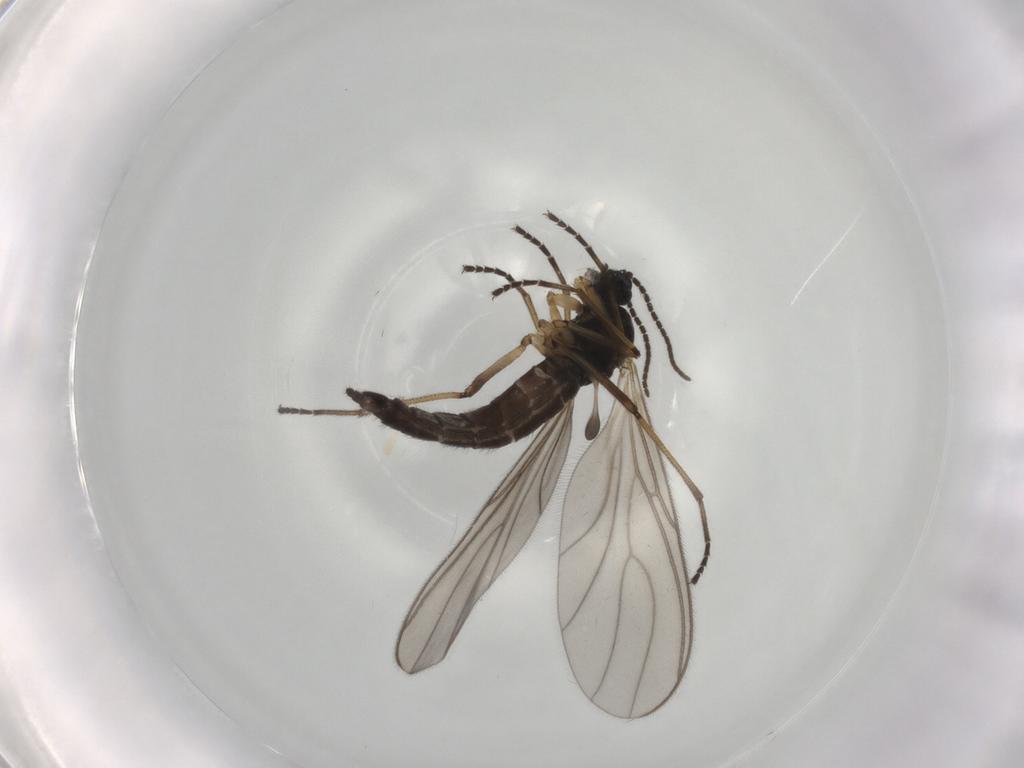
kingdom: Animalia
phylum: Arthropoda
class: Insecta
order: Diptera
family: Sciaridae
